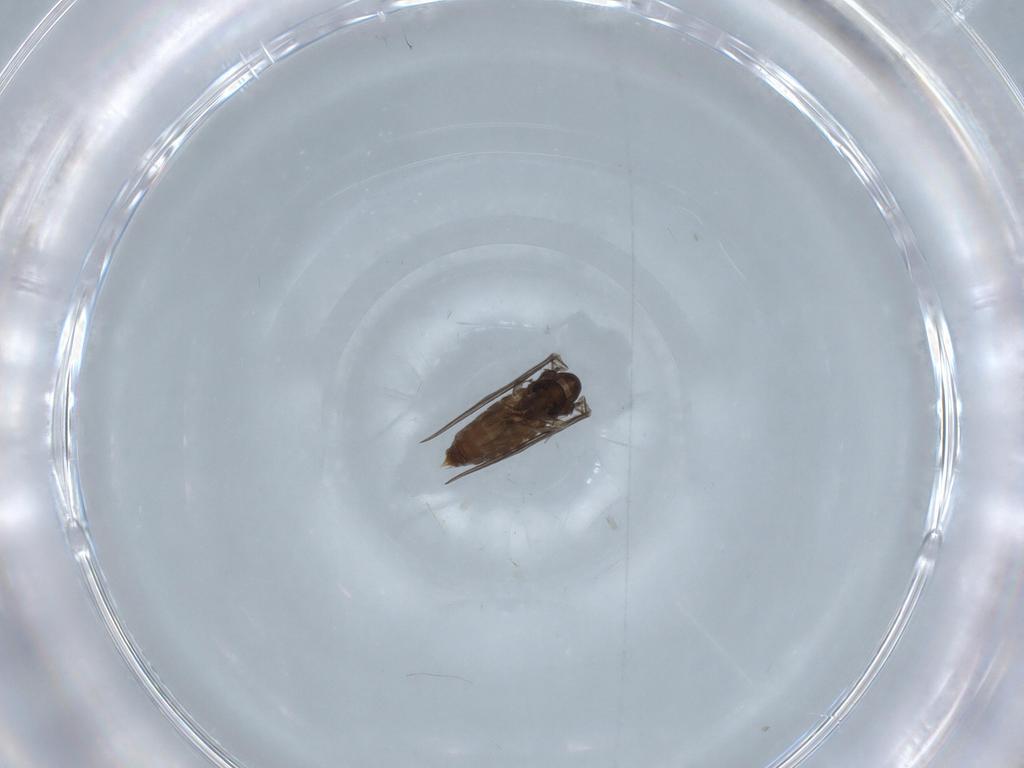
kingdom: Animalia
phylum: Arthropoda
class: Insecta
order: Diptera
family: Psychodidae
